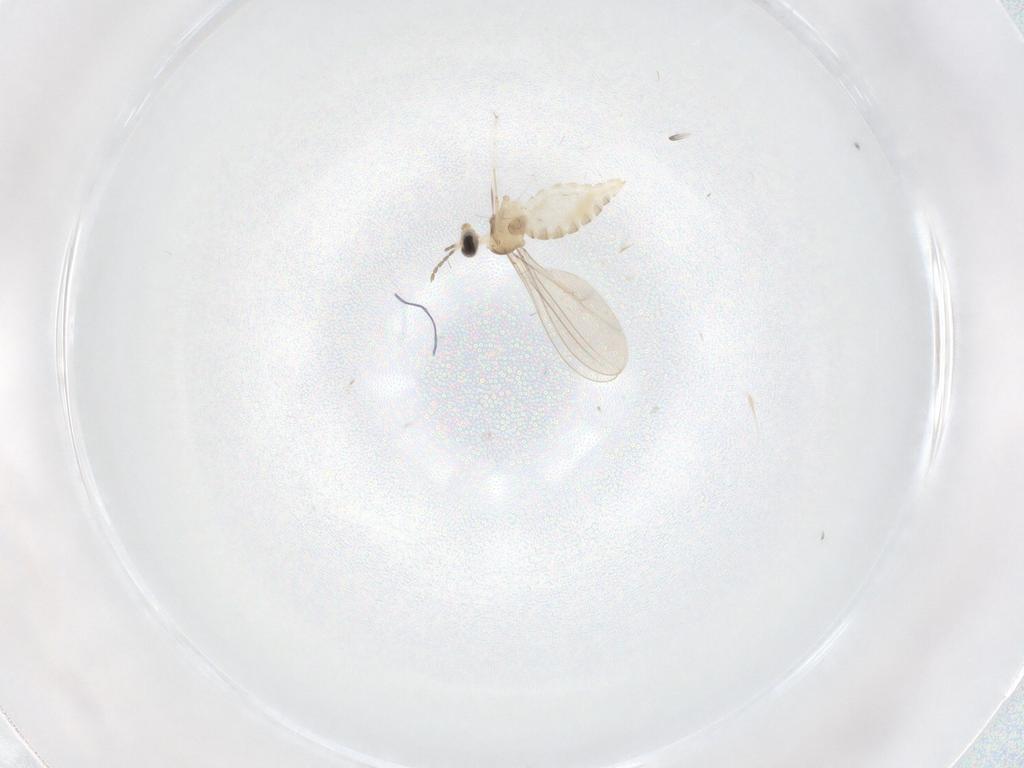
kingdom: Animalia
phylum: Arthropoda
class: Insecta
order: Diptera
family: Cecidomyiidae
